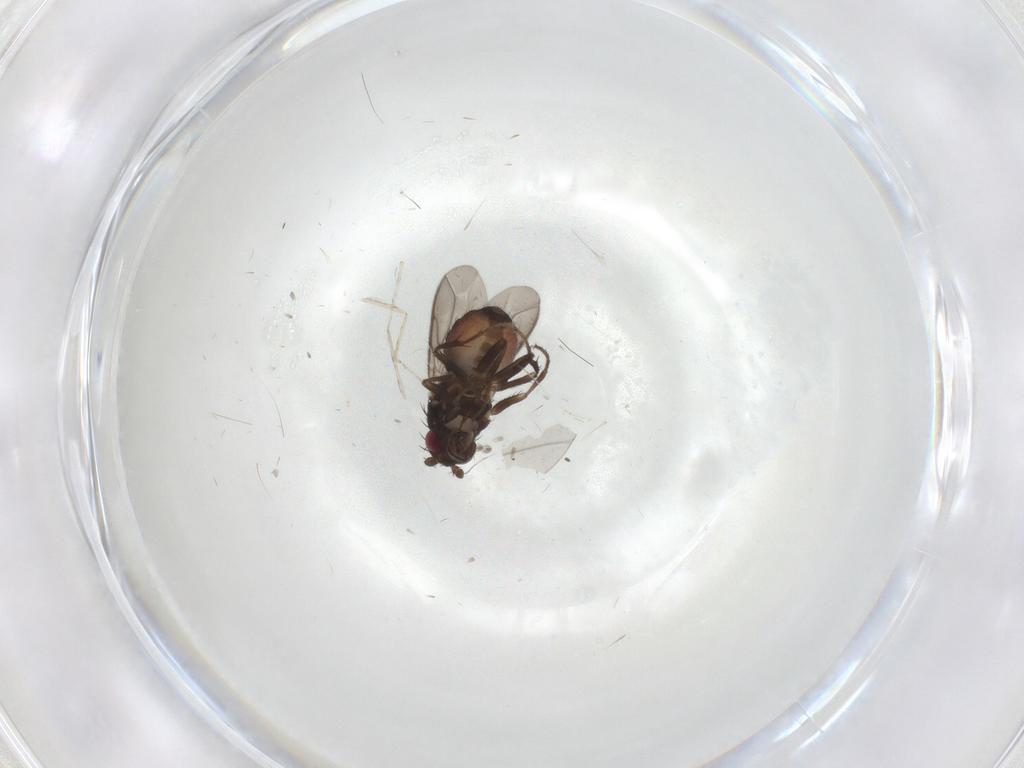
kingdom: Animalia
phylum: Arthropoda
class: Insecta
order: Diptera
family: Cecidomyiidae
